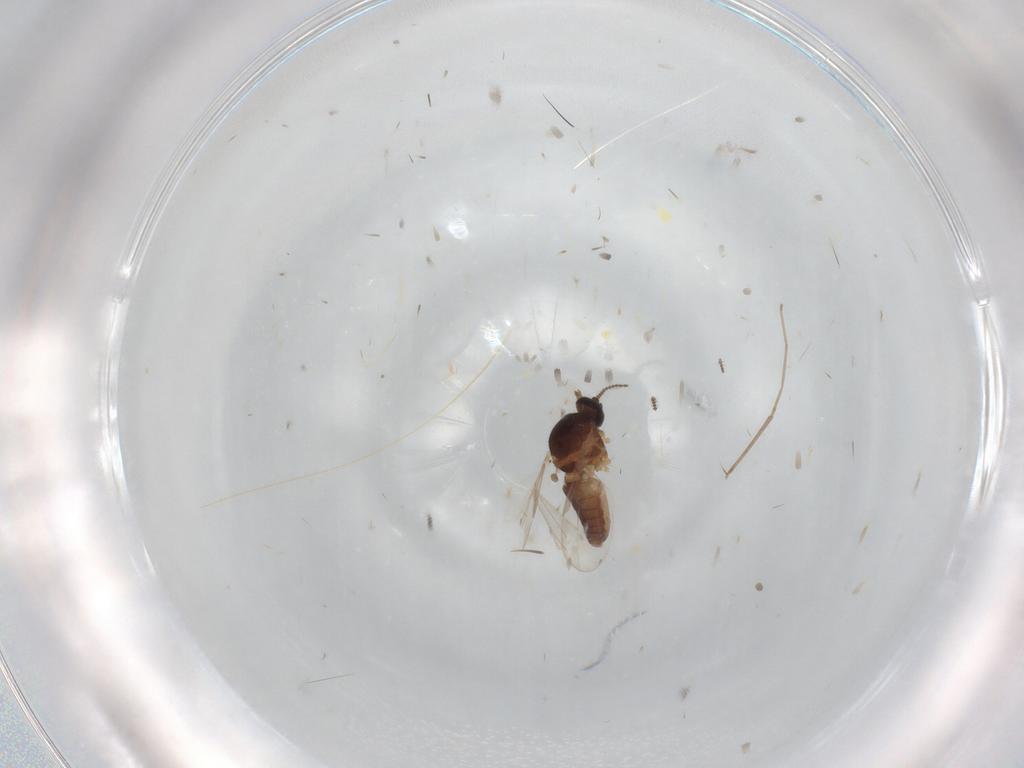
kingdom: Animalia
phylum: Arthropoda
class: Insecta
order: Diptera
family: Ceratopogonidae
